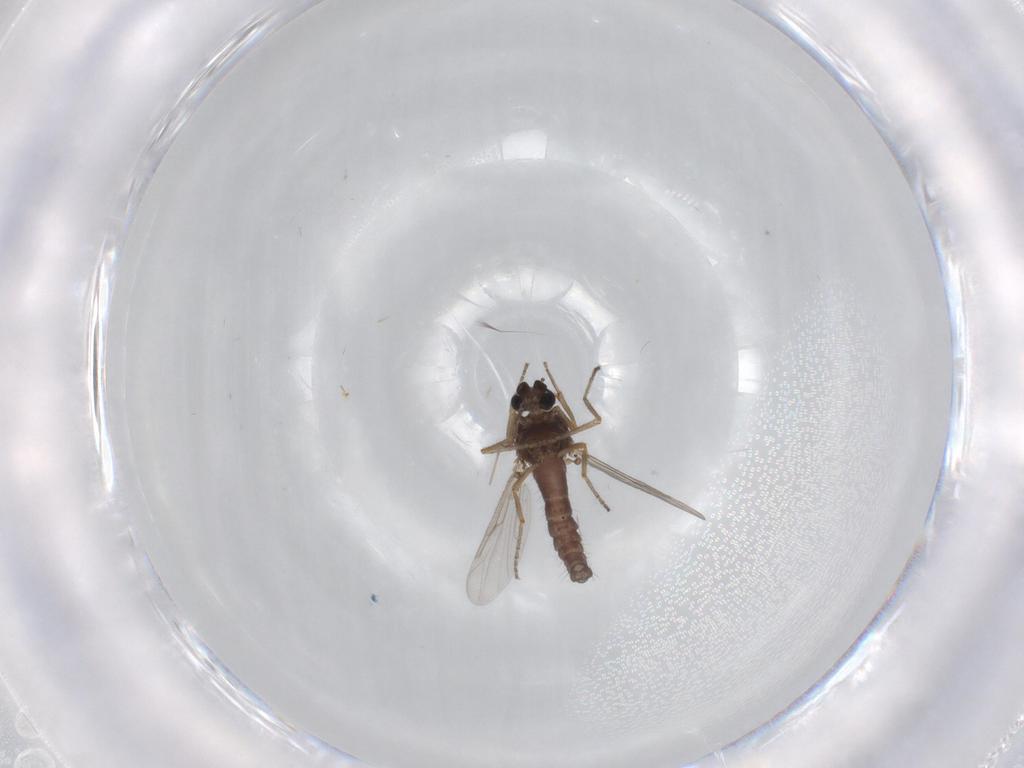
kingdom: Animalia
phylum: Arthropoda
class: Insecta
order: Diptera
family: Ceratopogonidae
